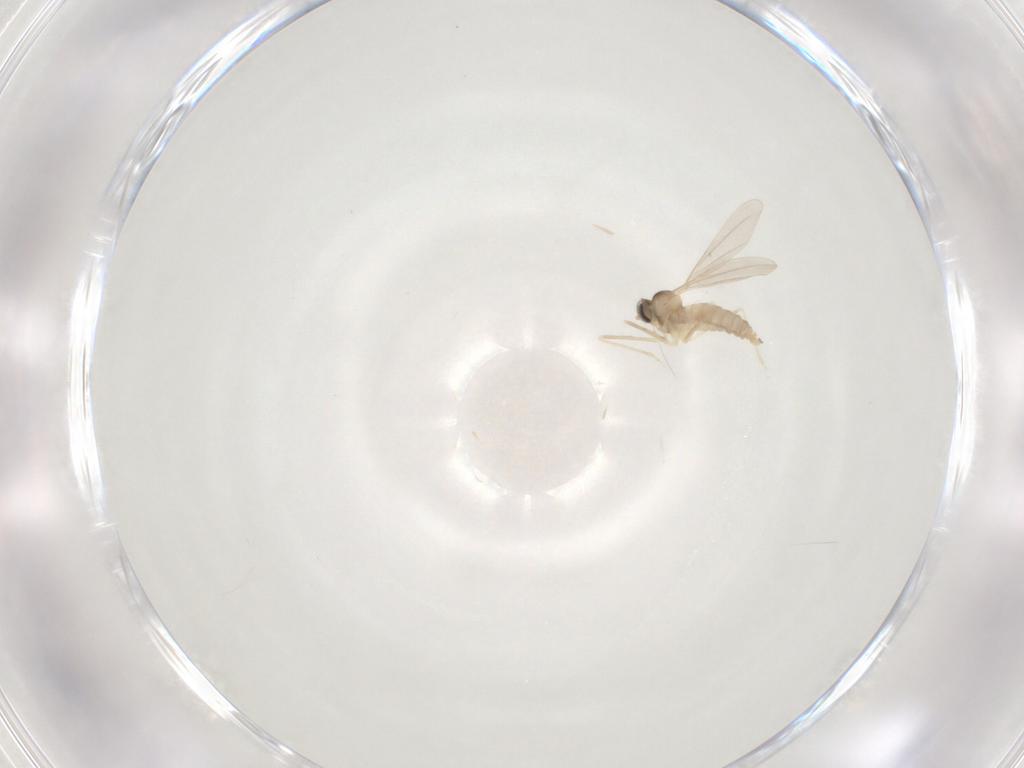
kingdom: Animalia
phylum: Arthropoda
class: Insecta
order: Diptera
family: Cecidomyiidae
